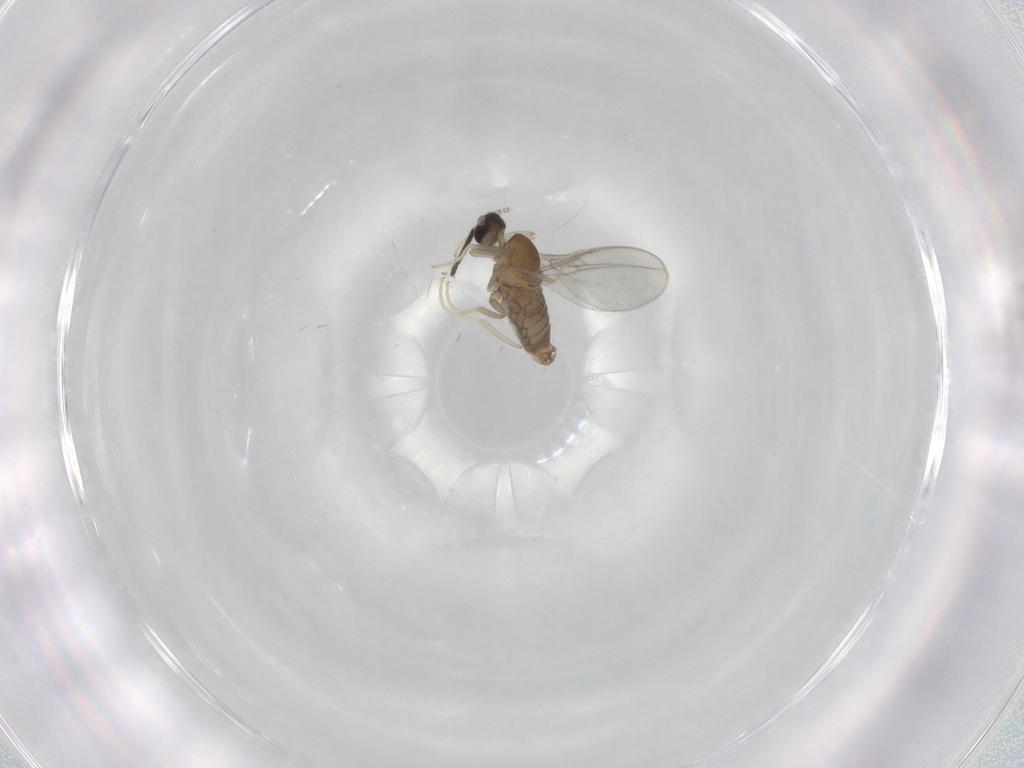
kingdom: Animalia
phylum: Arthropoda
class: Insecta
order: Diptera
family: Cecidomyiidae
